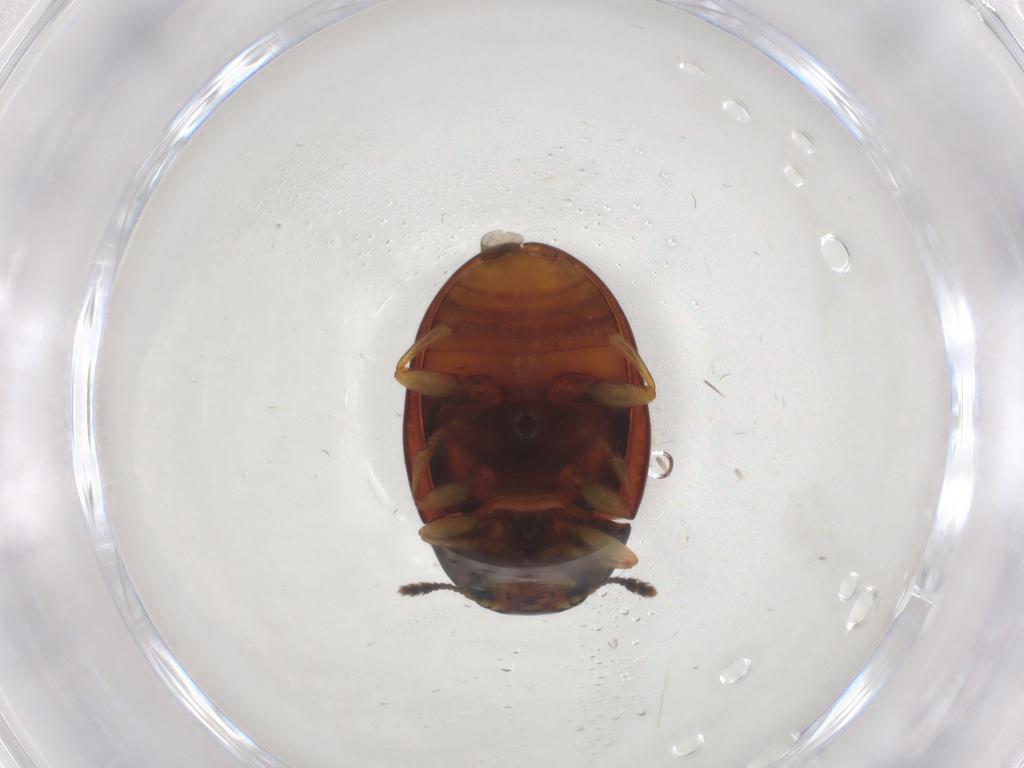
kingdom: Animalia
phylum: Arthropoda
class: Insecta
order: Coleoptera
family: Erotylidae
